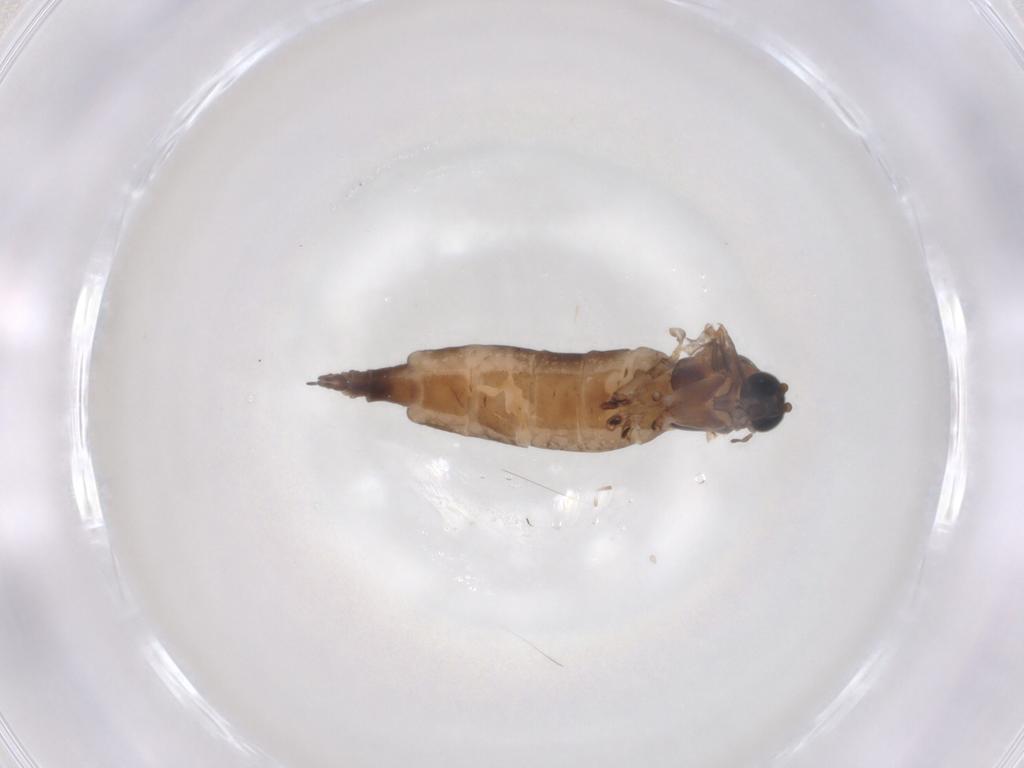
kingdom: Animalia
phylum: Arthropoda
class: Insecta
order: Diptera
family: Sciaridae
